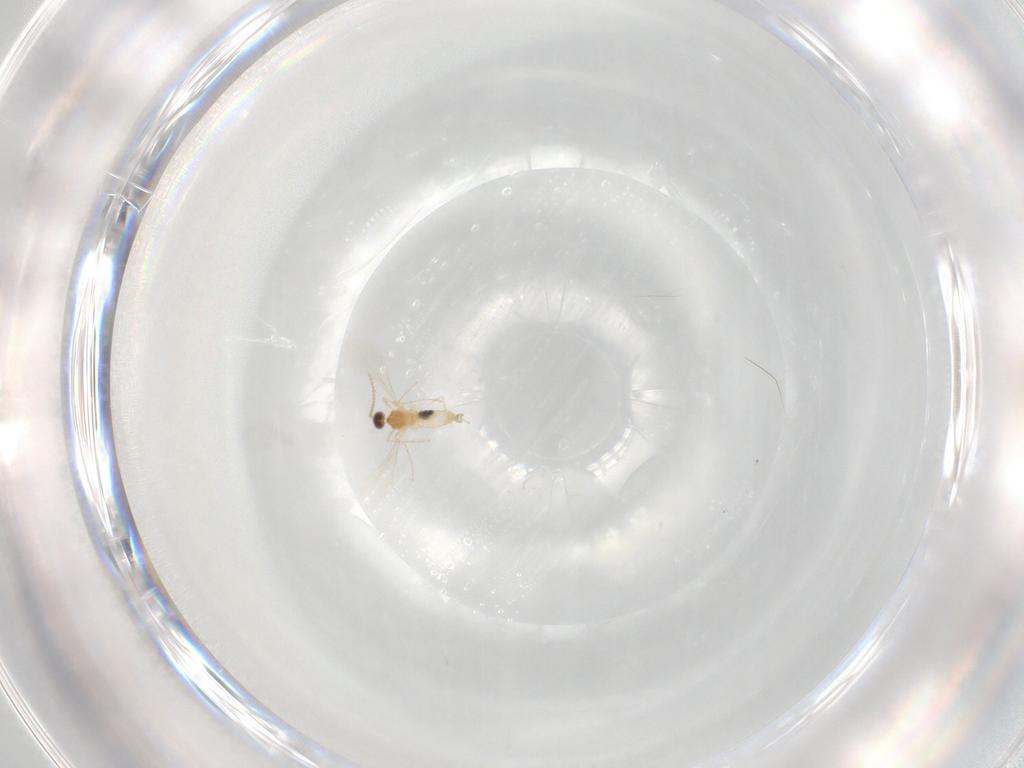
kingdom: Animalia
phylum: Arthropoda
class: Insecta
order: Diptera
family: Cecidomyiidae
